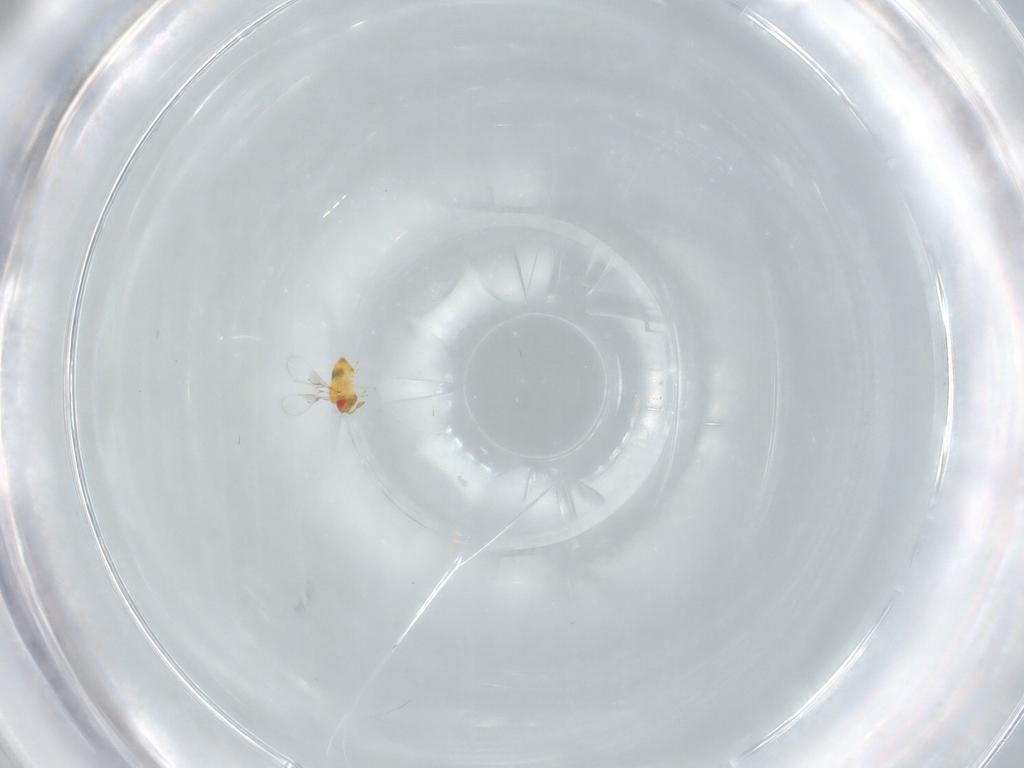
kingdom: Animalia
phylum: Arthropoda
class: Insecta
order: Hymenoptera
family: Trichogrammatidae
